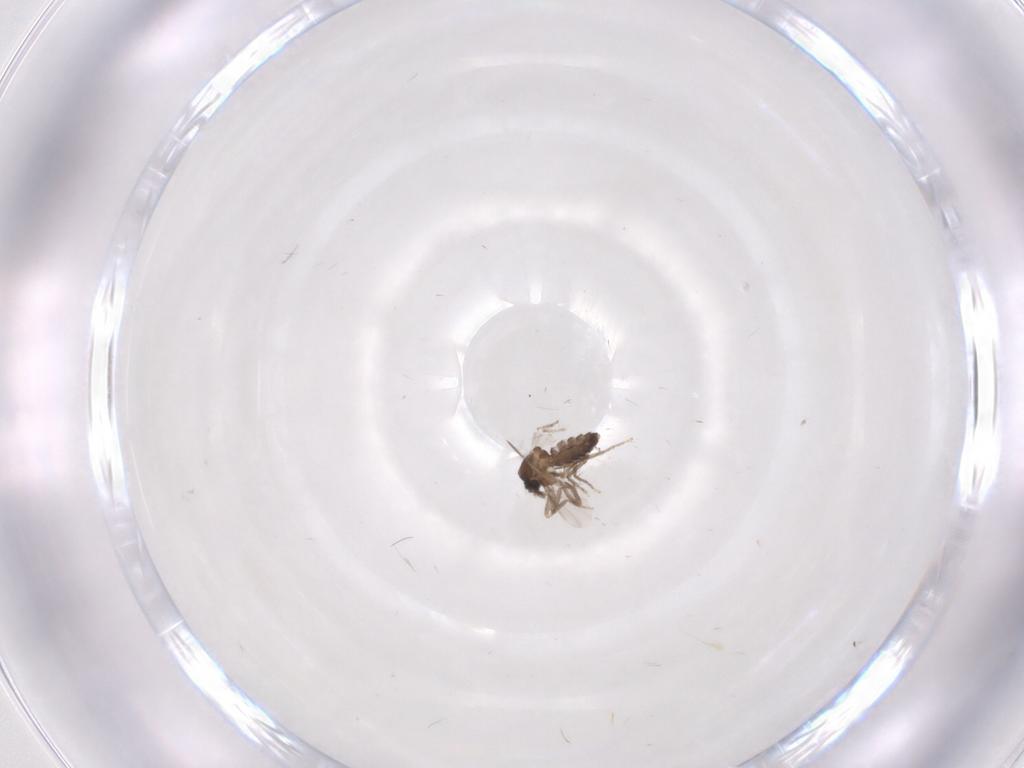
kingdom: Animalia
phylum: Arthropoda
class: Insecta
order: Diptera
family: Ceratopogonidae
